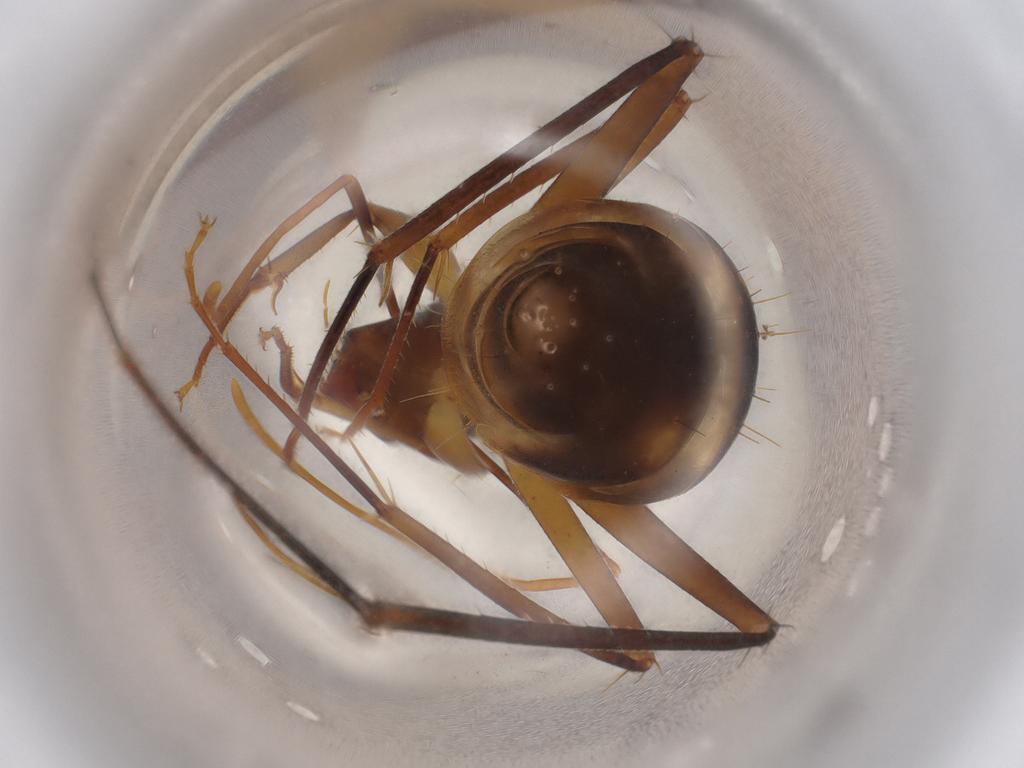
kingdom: Animalia
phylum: Arthropoda
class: Insecta
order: Hymenoptera
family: Formicidae
